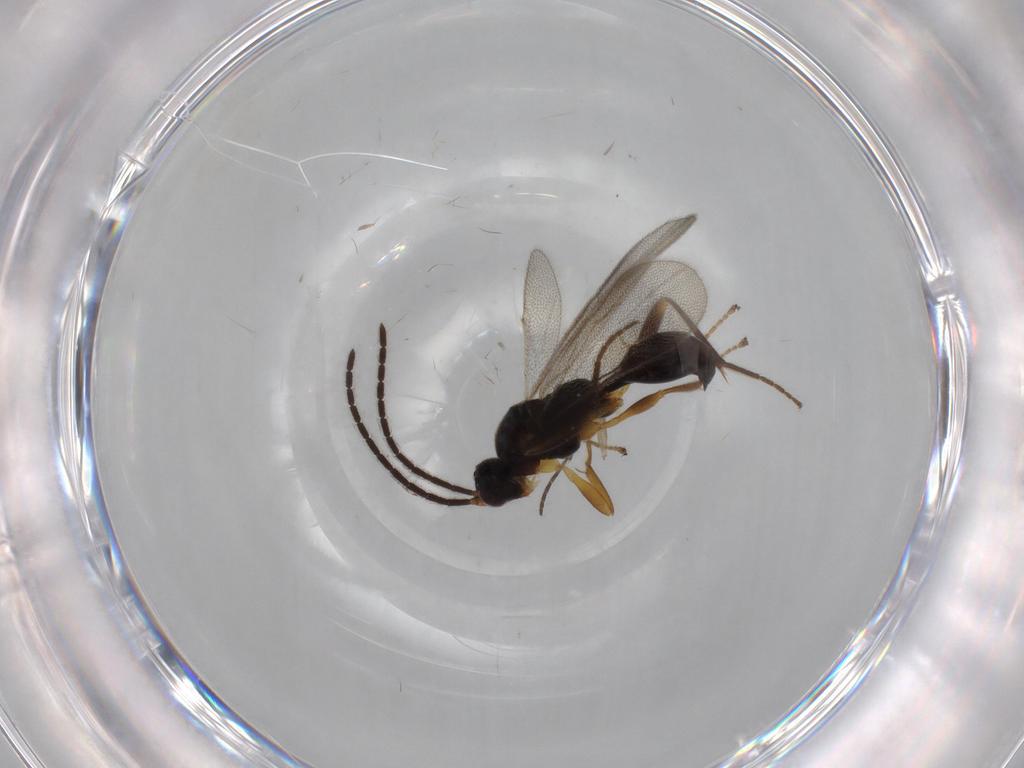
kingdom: Animalia
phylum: Arthropoda
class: Insecta
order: Hymenoptera
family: Proctotrupidae
